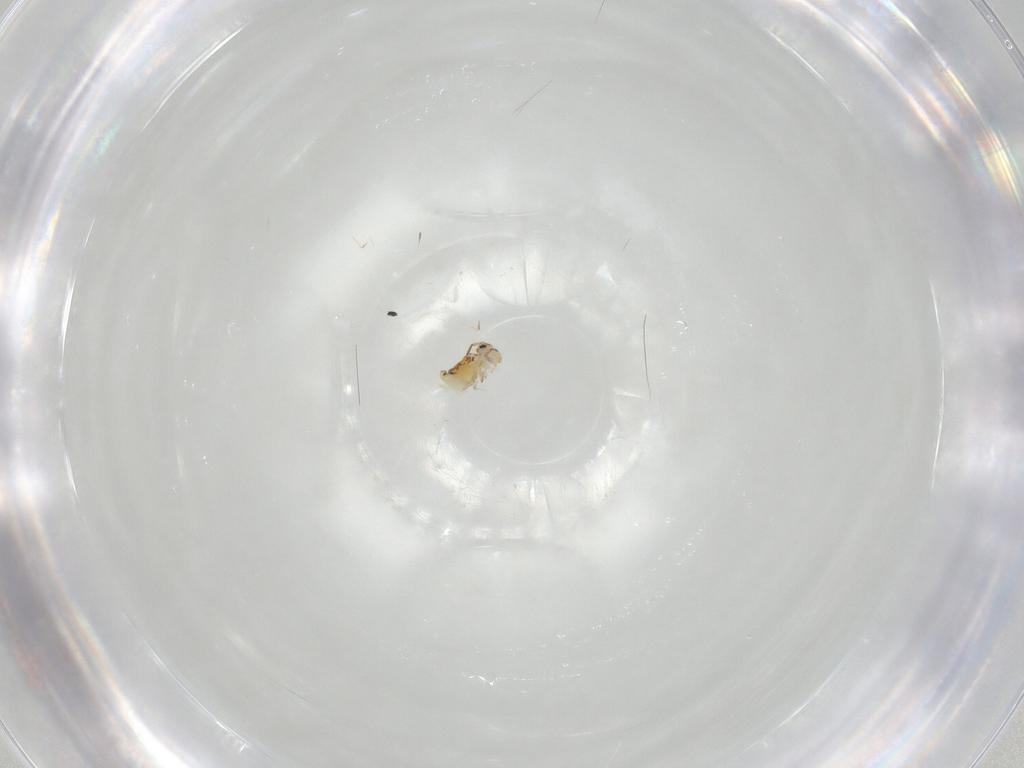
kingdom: Animalia
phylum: Arthropoda
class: Collembola
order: Symphypleona
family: Bourletiellidae
